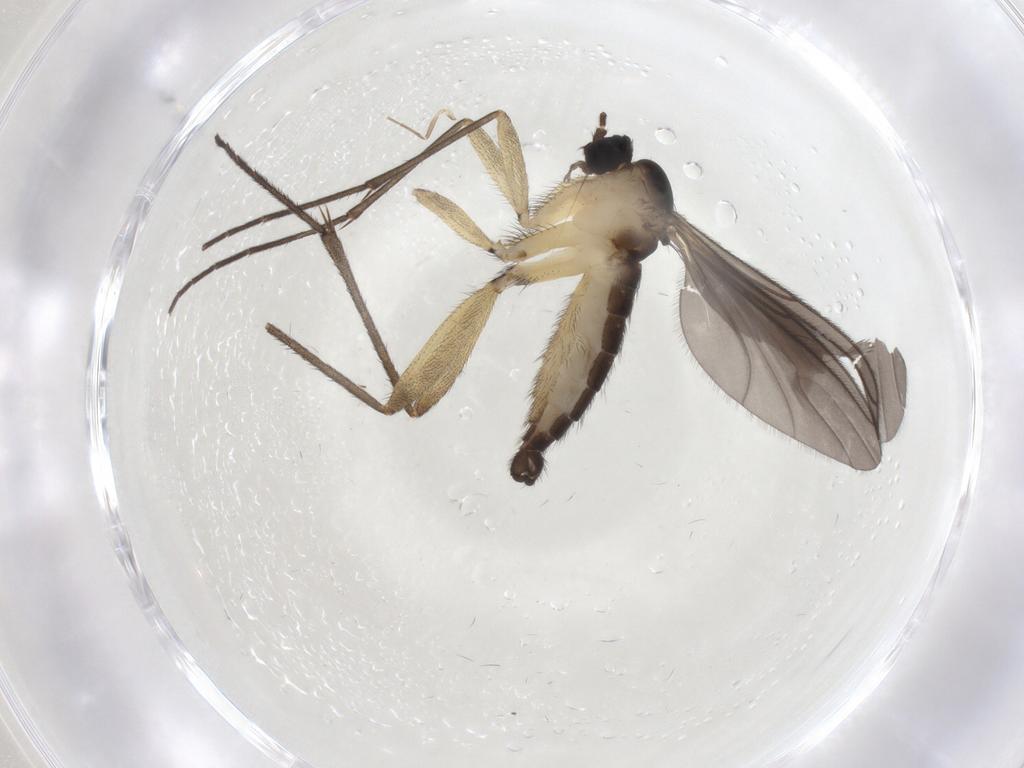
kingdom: Animalia
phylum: Arthropoda
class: Insecta
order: Diptera
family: Sciaridae
